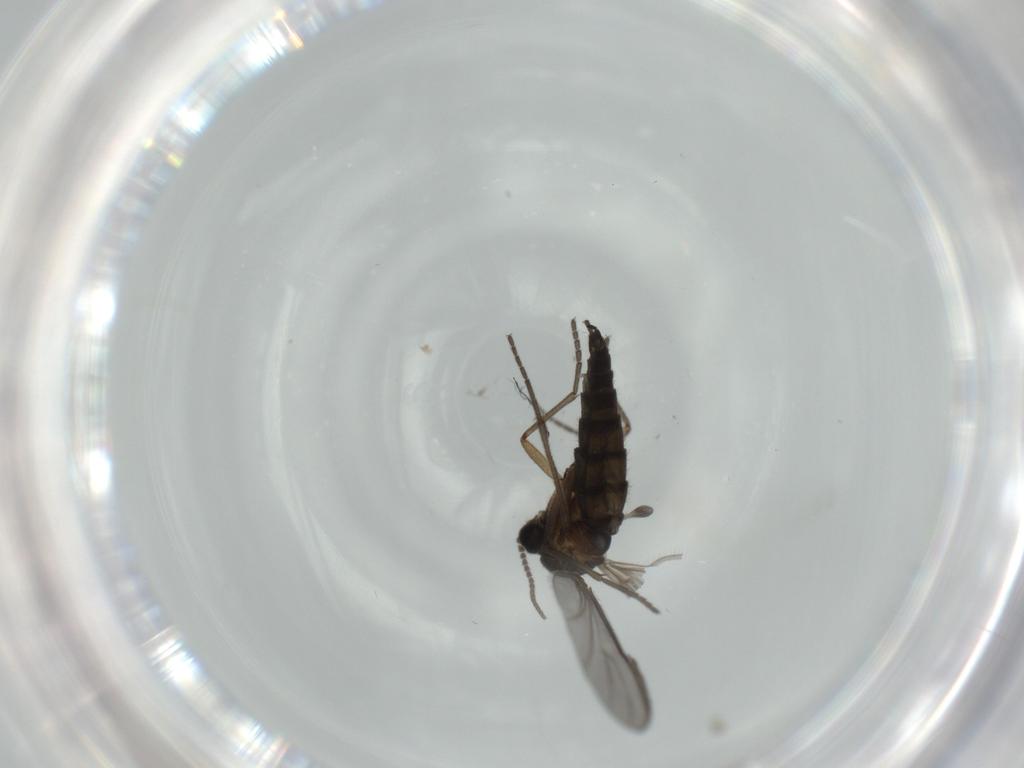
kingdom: Animalia
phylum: Arthropoda
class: Insecta
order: Diptera
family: Sciaridae
